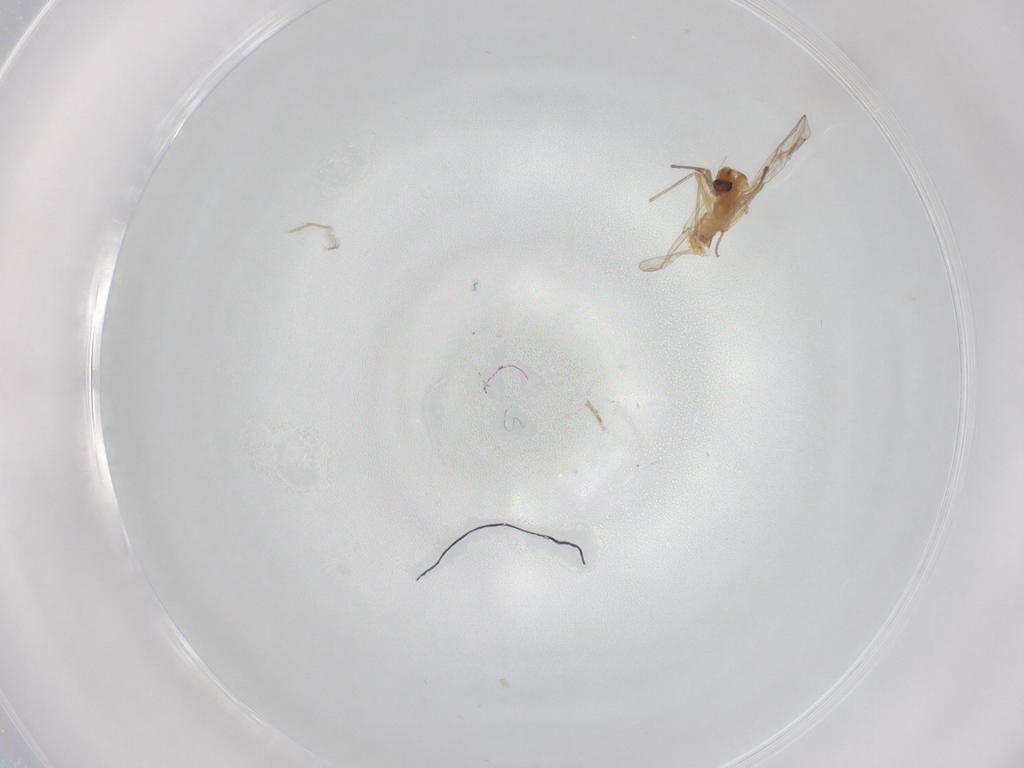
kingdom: Animalia
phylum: Arthropoda
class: Insecta
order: Diptera
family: Chironomidae
